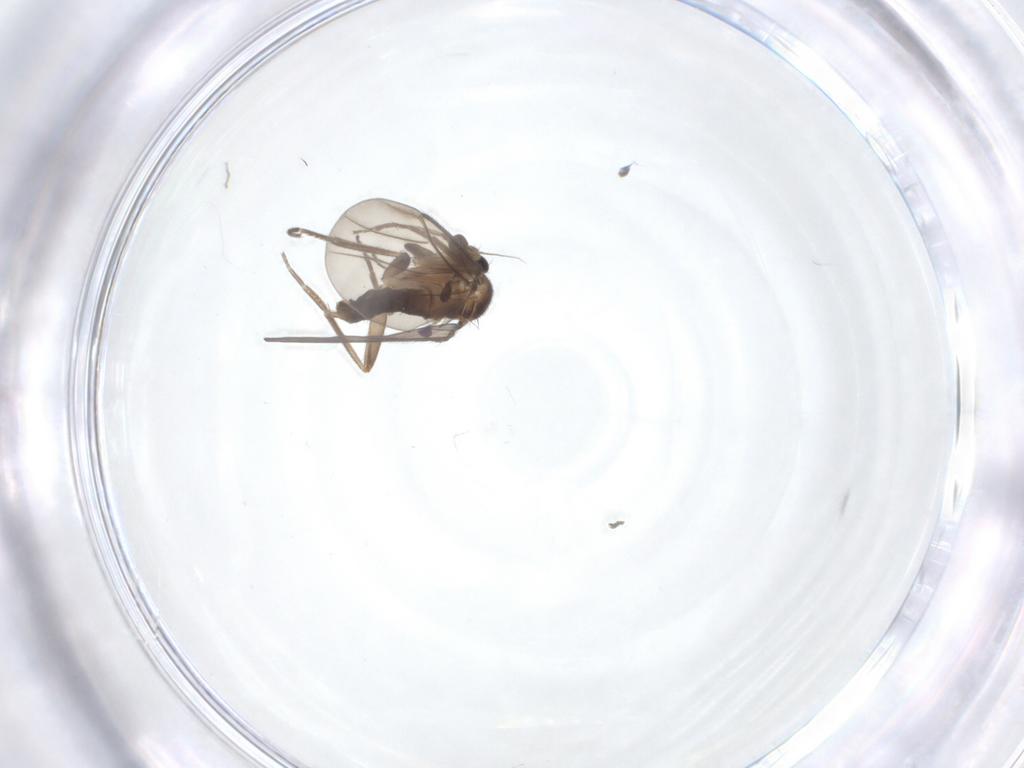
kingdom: Animalia
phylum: Arthropoda
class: Insecta
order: Diptera
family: Phoridae
